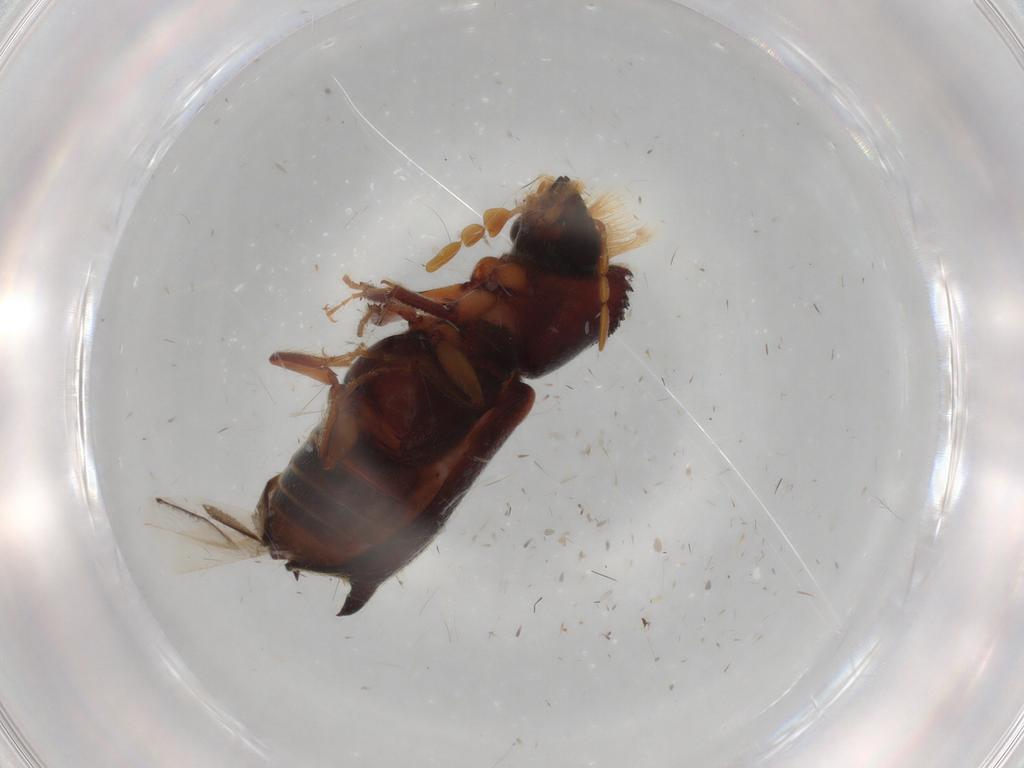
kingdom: Animalia
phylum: Arthropoda
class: Insecta
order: Coleoptera
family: Bostrichidae
